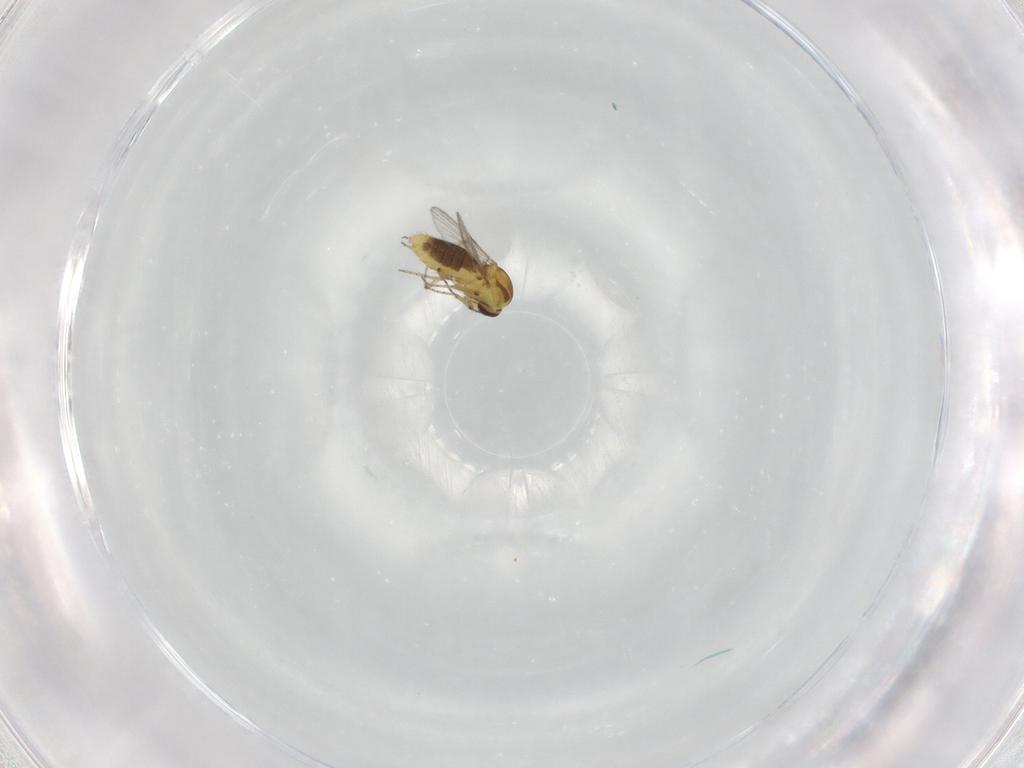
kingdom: Animalia
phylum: Arthropoda
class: Insecta
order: Diptera
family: Ceratopogonidae
